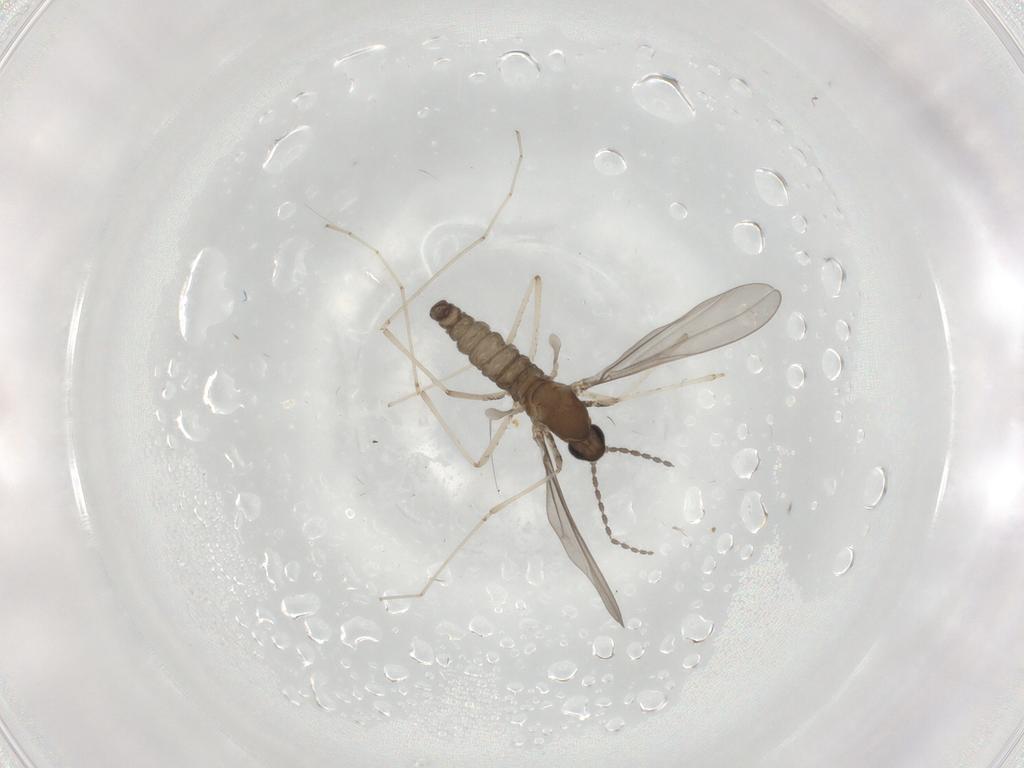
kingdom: Animalia
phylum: Arthropoda
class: Insecta
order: Diptera
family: Cecidomyiidae
